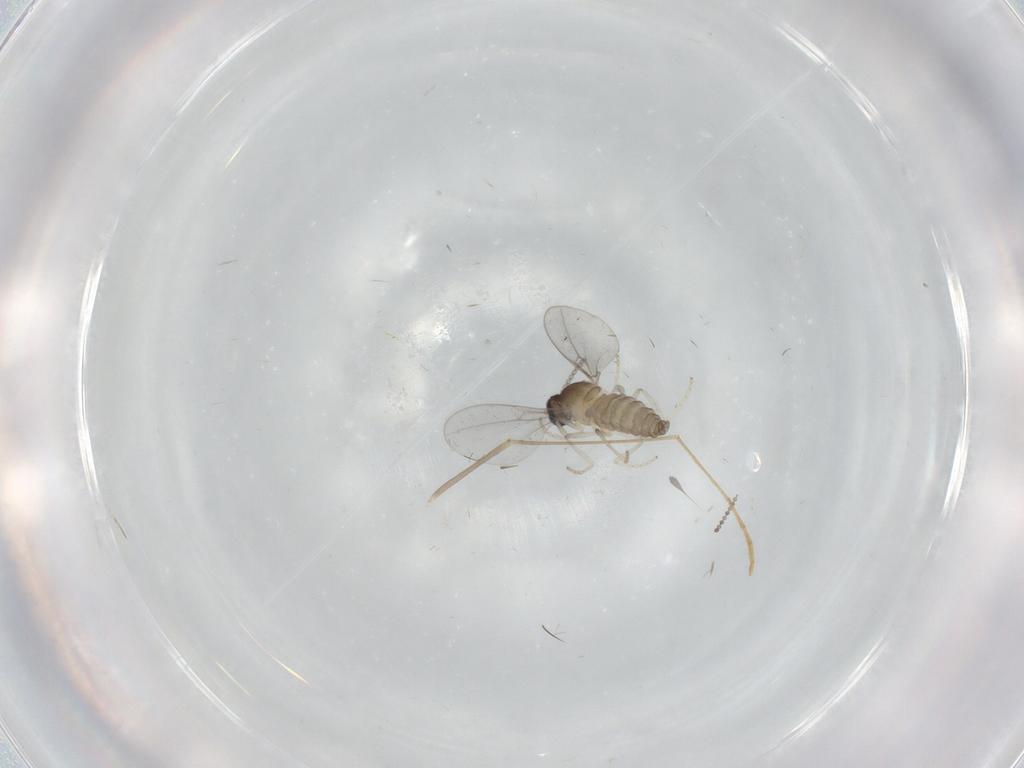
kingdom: Animalia
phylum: Arthropoda
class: Insecta
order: Diptera
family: Cecidomyiidae
